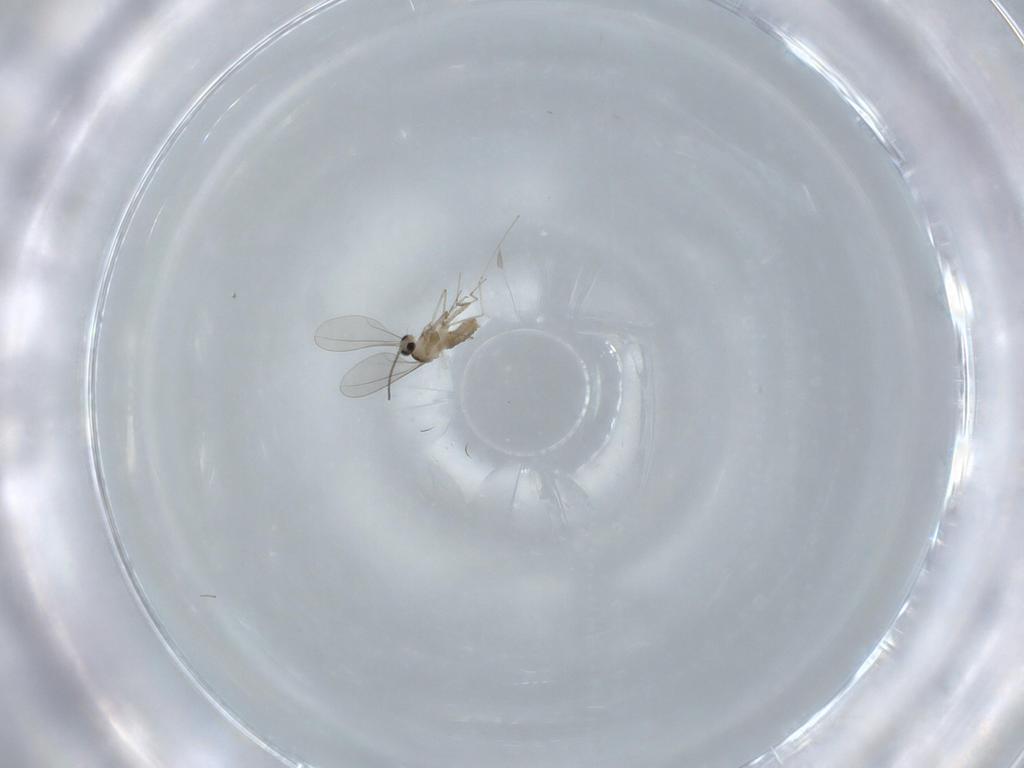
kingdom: Animalia
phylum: Arthropoda
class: Insecta
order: Diptera
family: Cecidomyiidae
